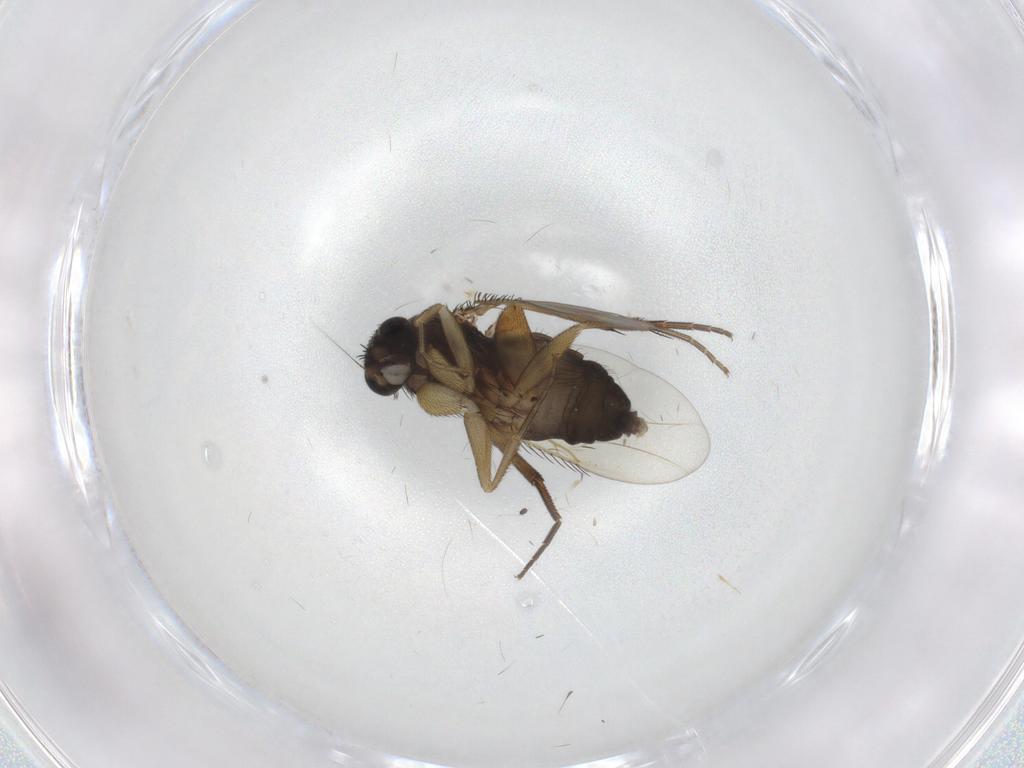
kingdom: Animalia
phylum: Arthropoda
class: Insecta
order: Diptera
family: Phoridae
